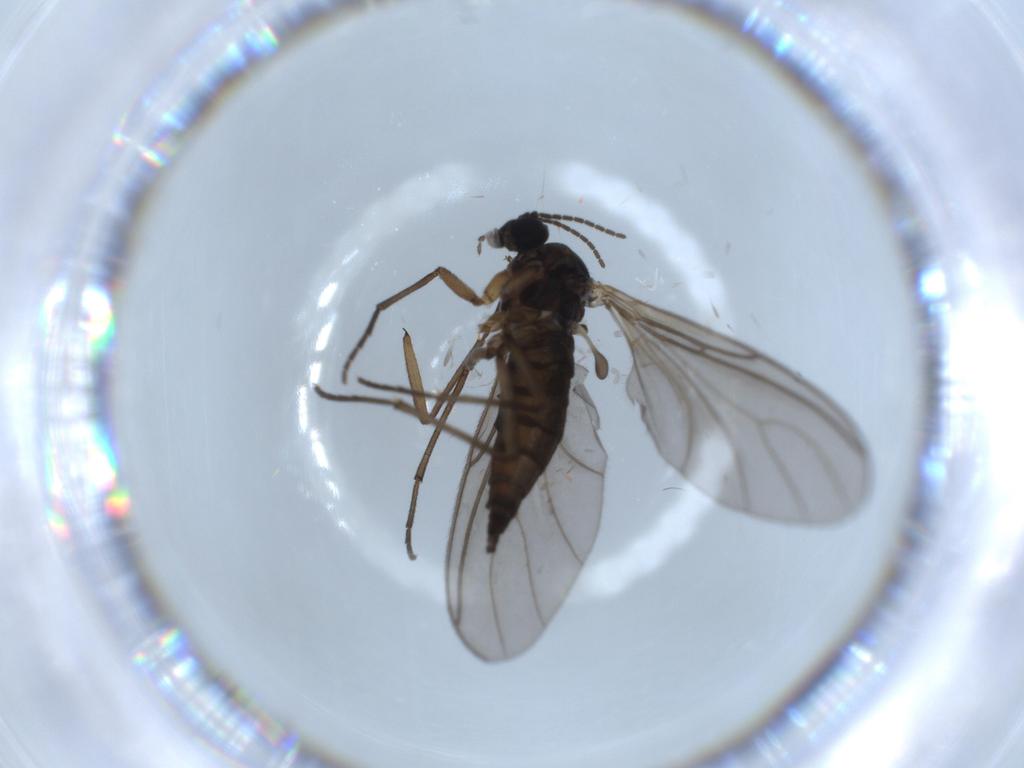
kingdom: Animalia
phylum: Arthropoda
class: Insecta
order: Diptera
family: Sciaridae
